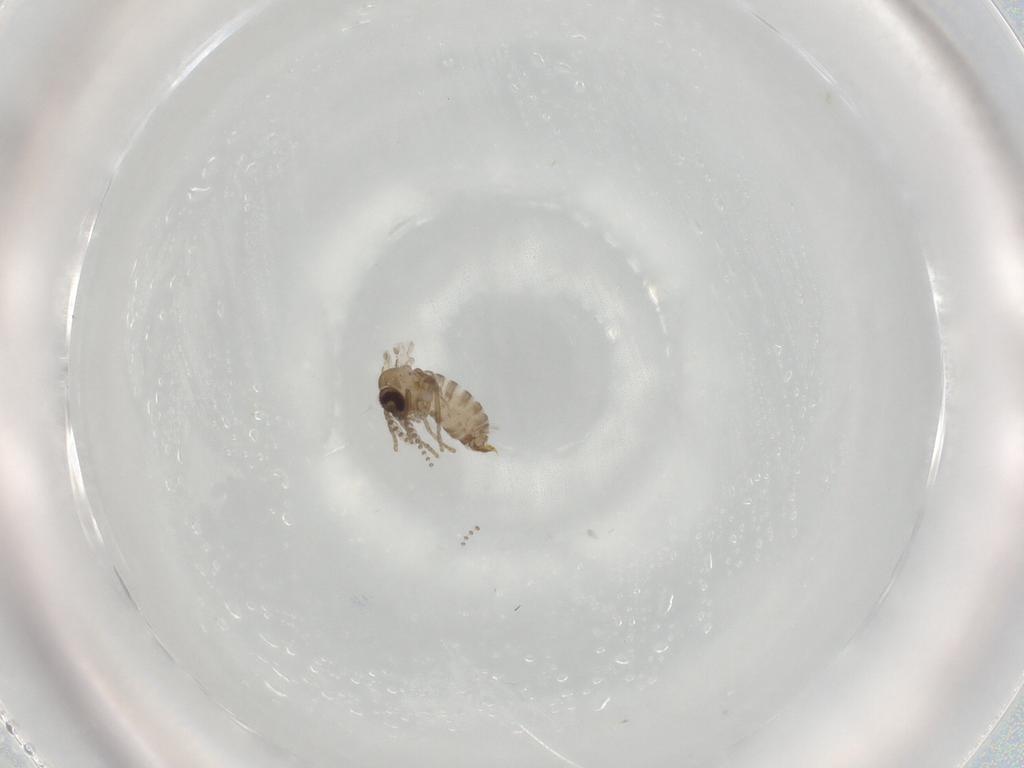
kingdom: Animalia
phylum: Arthropoda
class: Insecta
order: Diptera
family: Psychodidae
